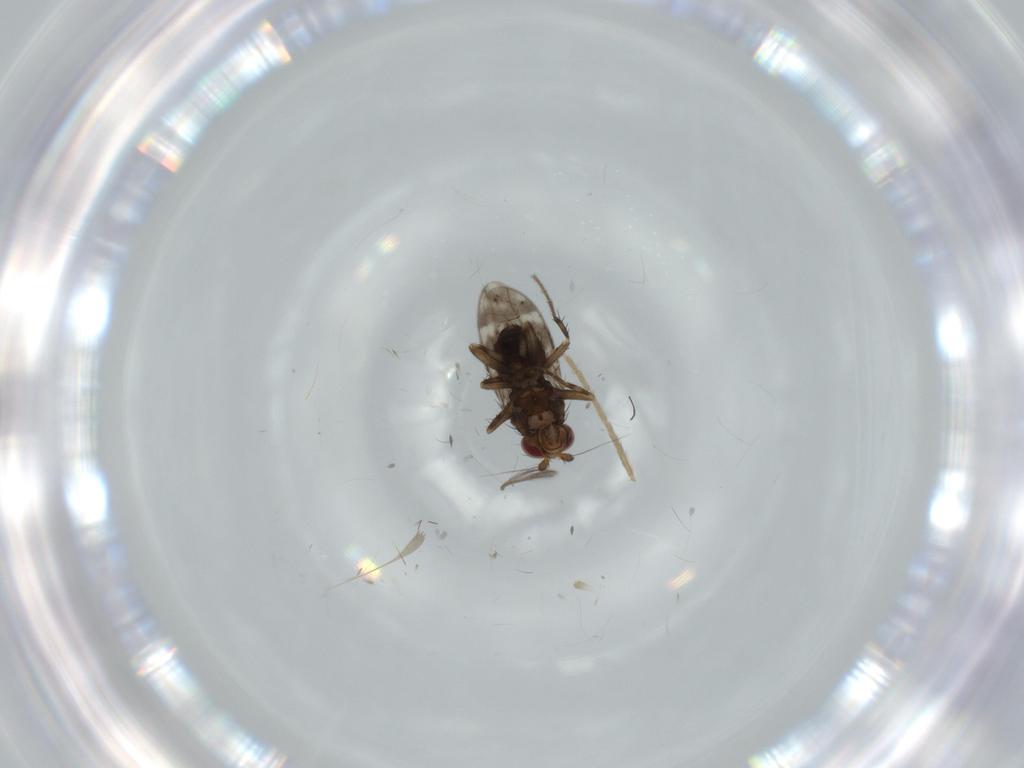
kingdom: Animalia
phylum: Arthropoda
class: Insecta
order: Diptera
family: Sphaeroceridae
